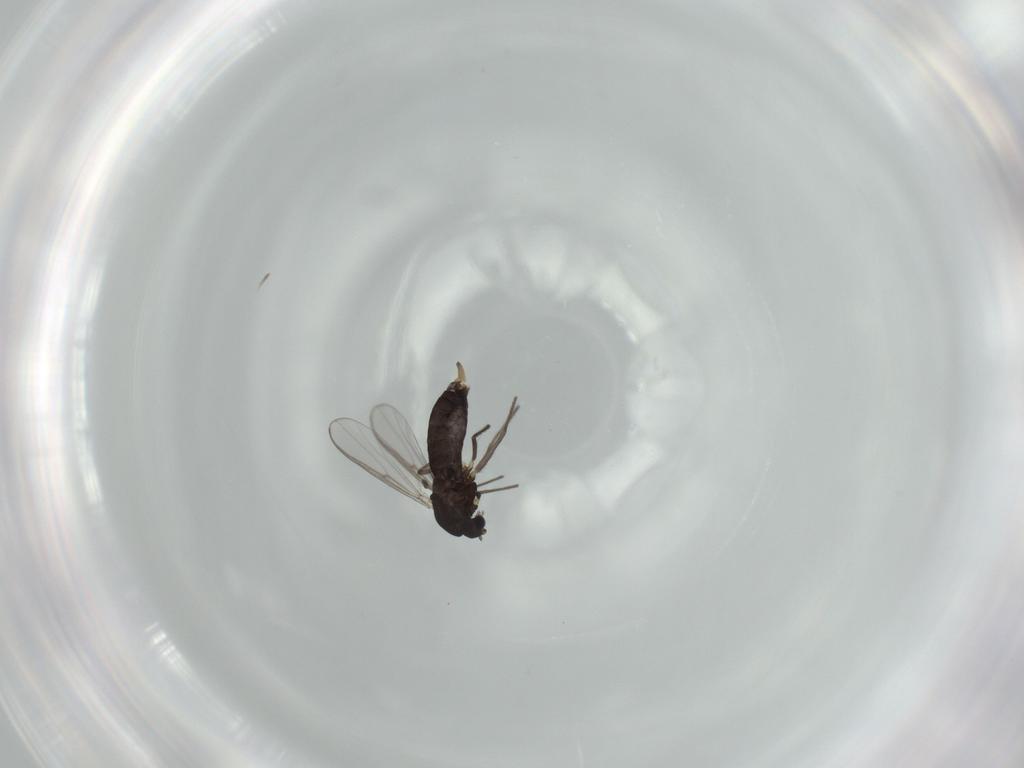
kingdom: Animalia
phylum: Arthropoda
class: Insecta
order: Diptera
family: Chironomidae
